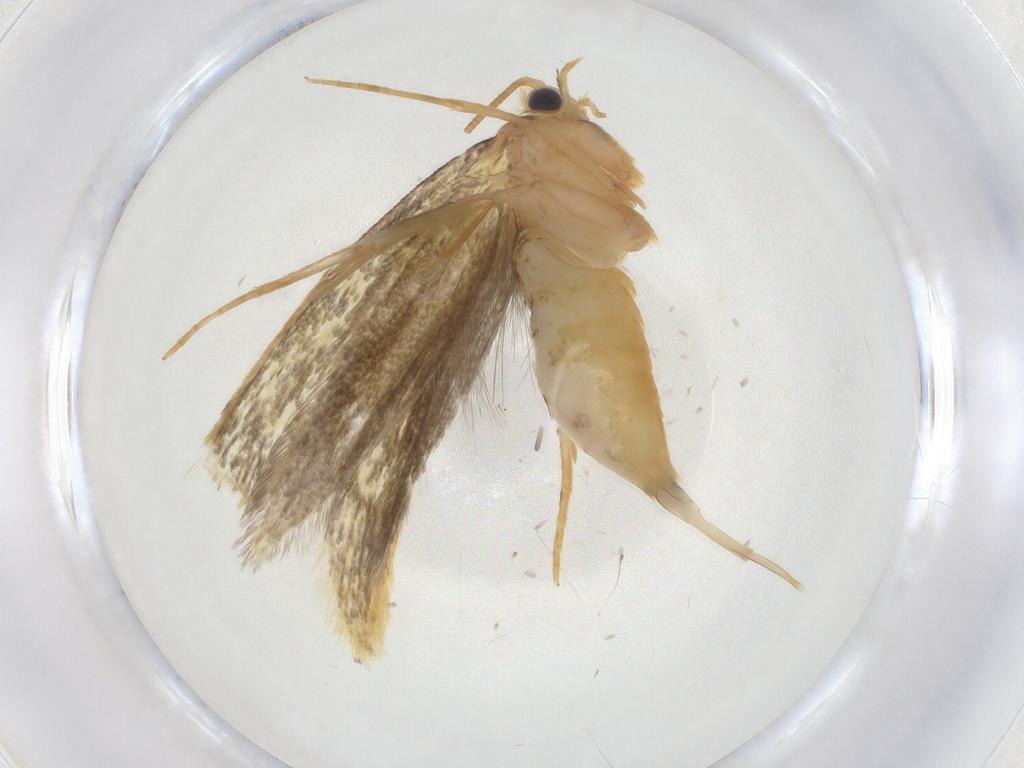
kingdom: Animalia
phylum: Arthropoda
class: Insecta
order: Lepidoptera
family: Tineidae
